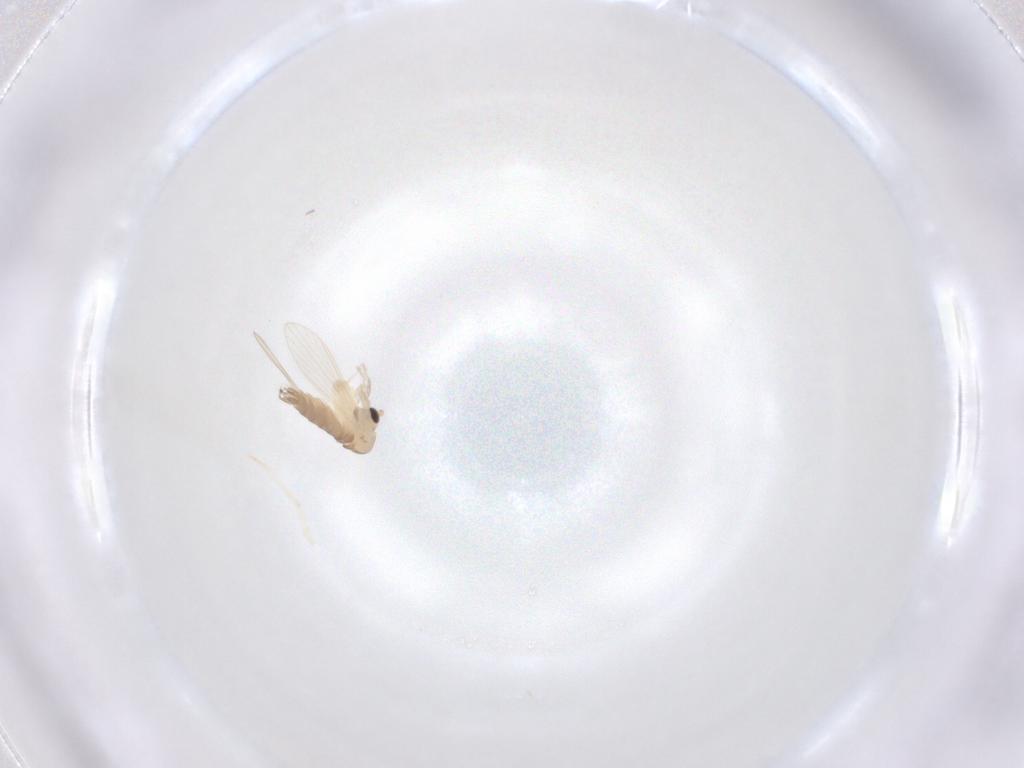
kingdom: Animalia
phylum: Arthropoda
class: Insecta
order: Diptera
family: Psychodidae
